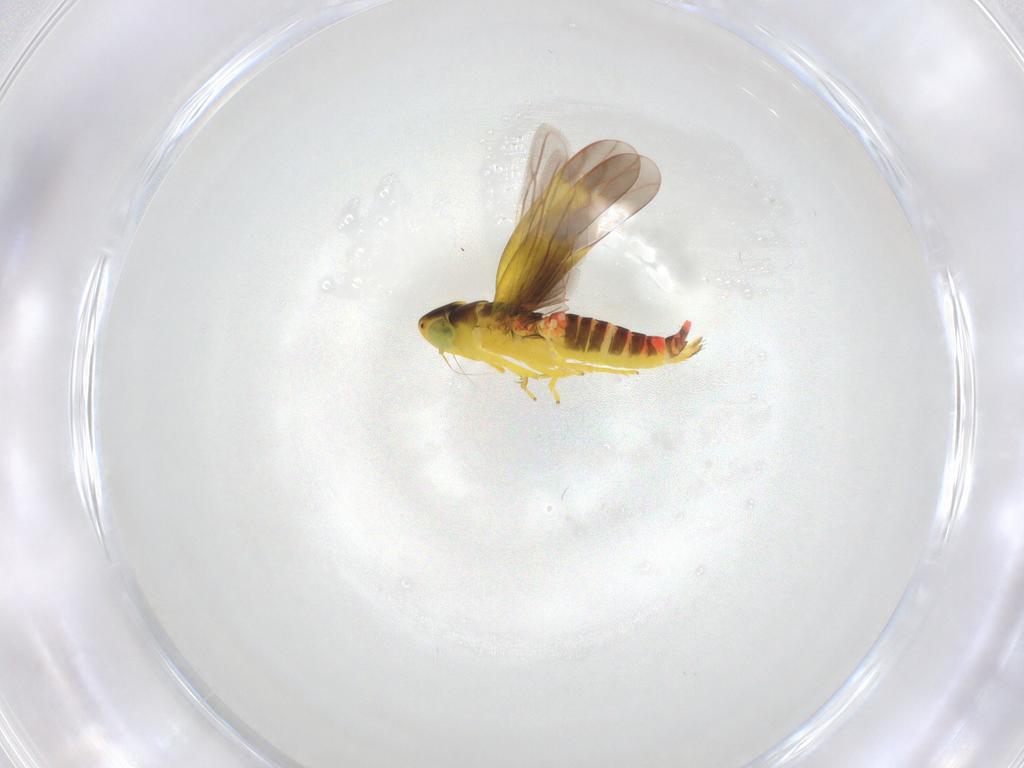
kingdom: Animalia
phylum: Arthropoda
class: Insecta
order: Hemiptera
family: Cicadellidae
